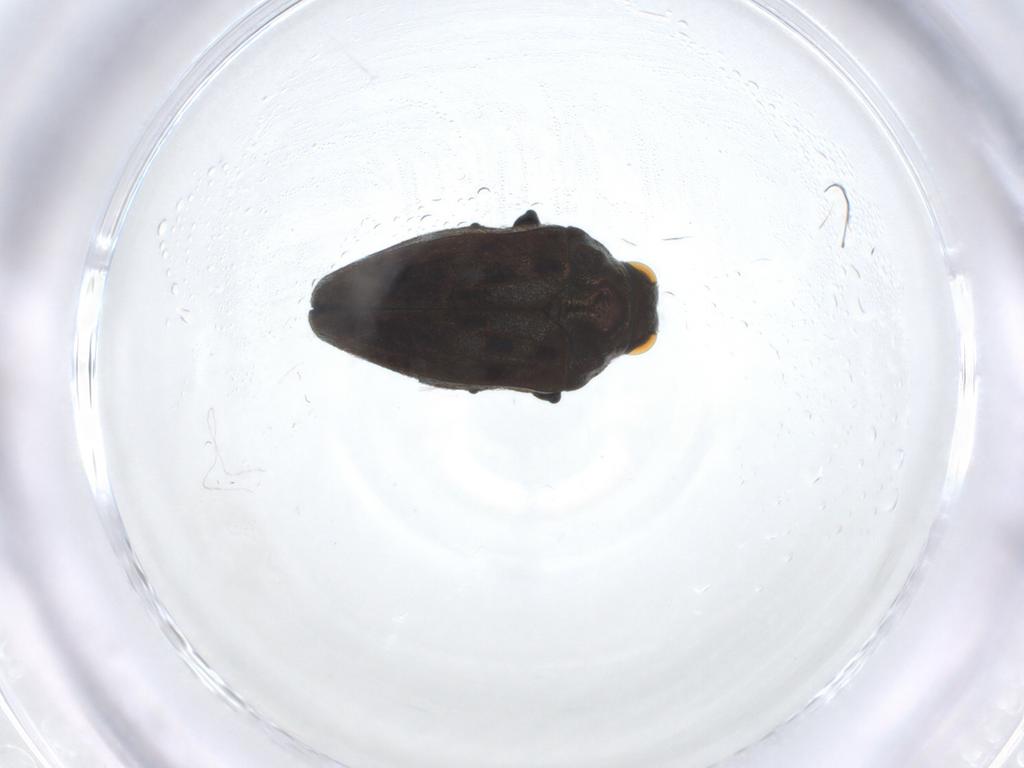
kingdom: Animalia
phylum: Arthropoda
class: Insecta
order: Coleoptera
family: Buprestidae
